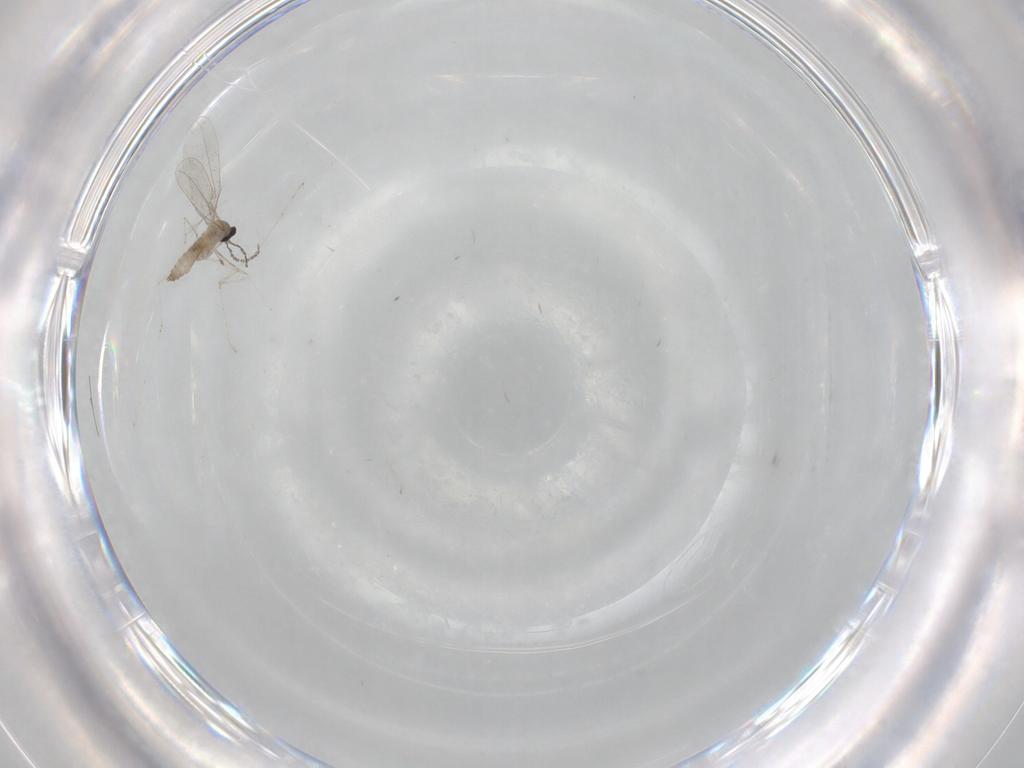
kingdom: Animalia
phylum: Arthropoda
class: Insecta
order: Diptera
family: Cecidomyiidae
